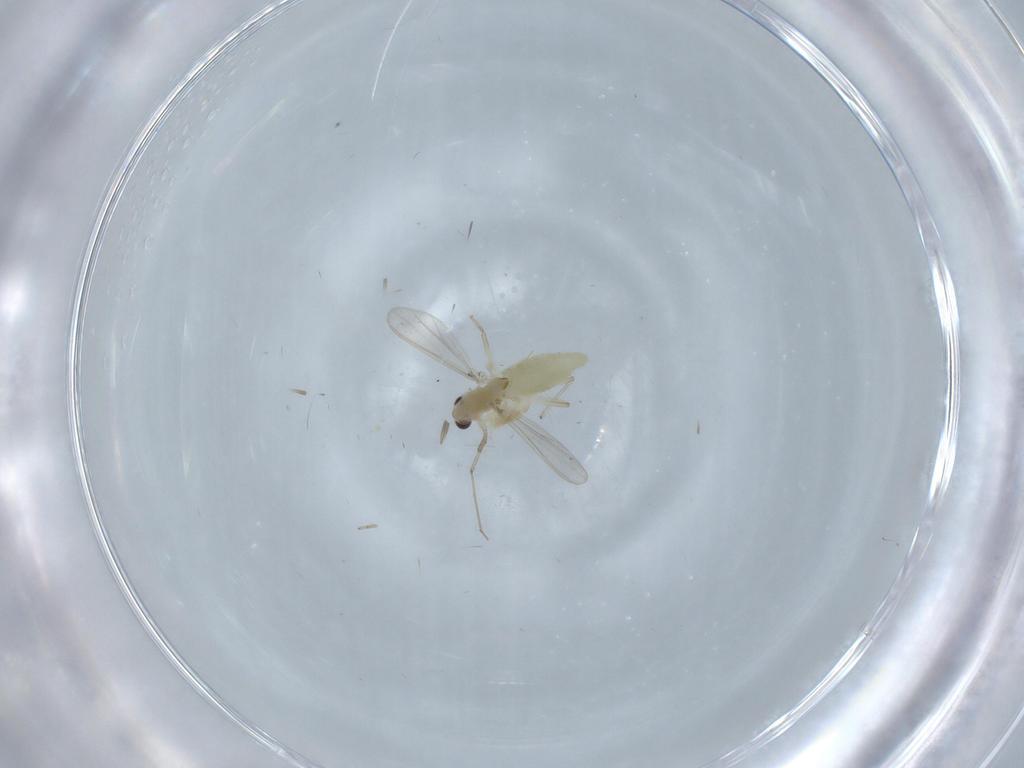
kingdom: Animalia
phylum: Arthropoda
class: Insecta
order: Diptera
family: Chironomidae
